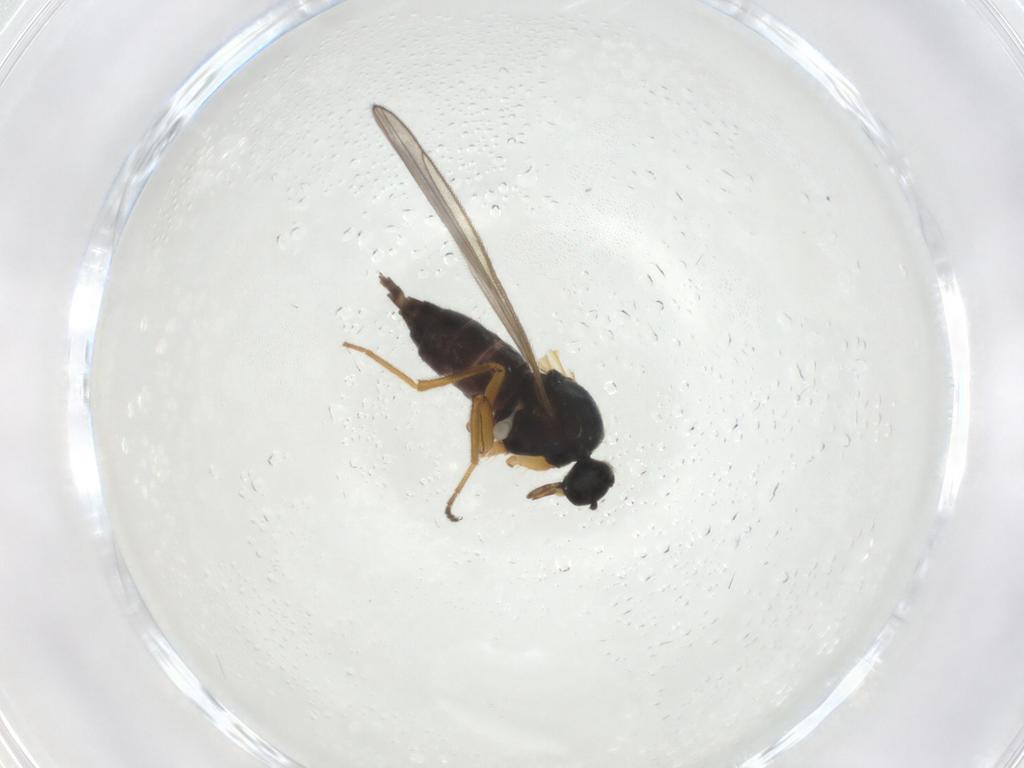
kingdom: Animalia
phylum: Arthropoda
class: Insecta
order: Diptera
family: Hybotidae
